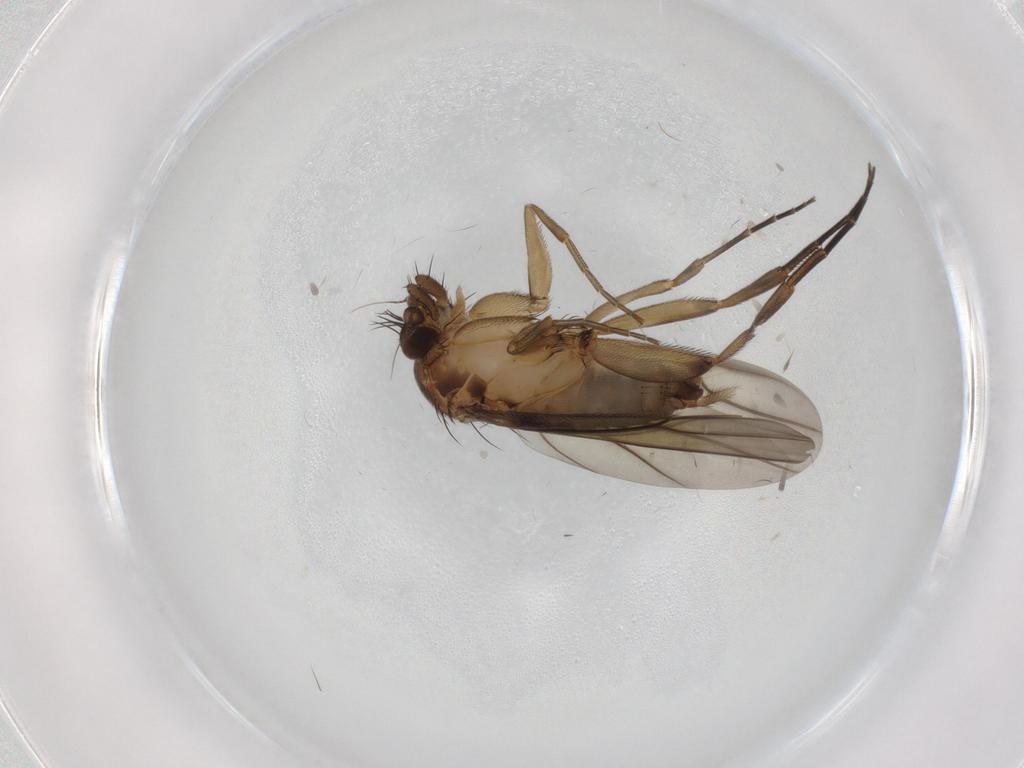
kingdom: Animalia
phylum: Arthropoda
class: Insecta
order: Diptera
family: Phoridae
